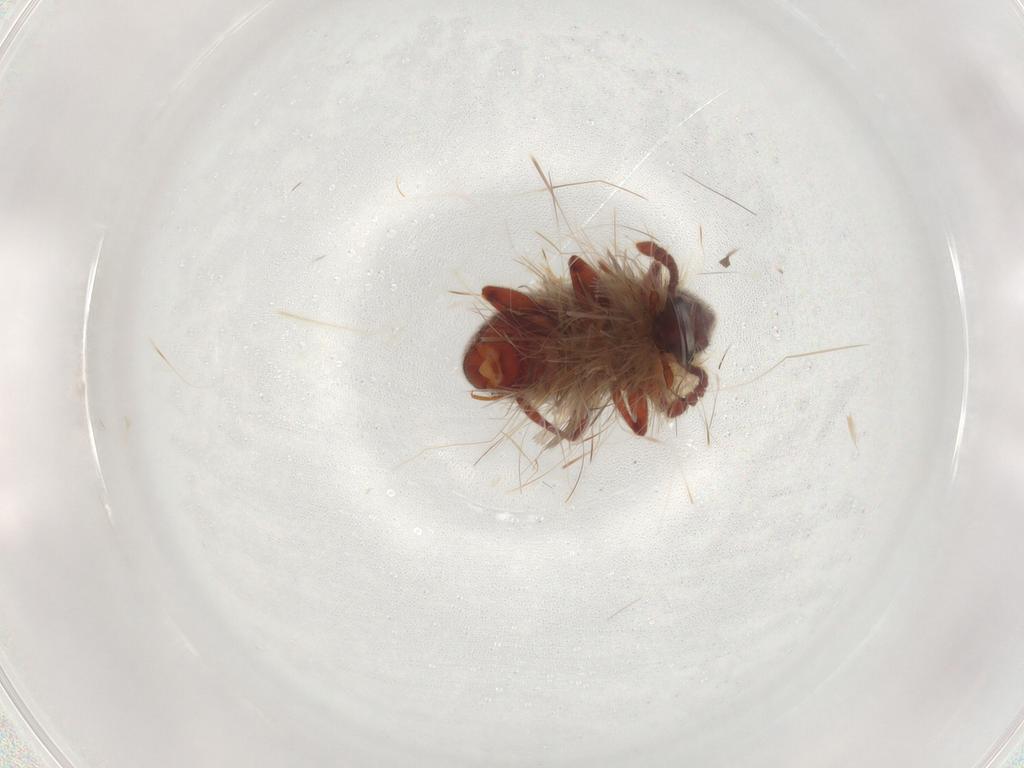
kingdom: Animalia
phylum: Arthropoda
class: Insecta
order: Coleoptera
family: Staphylinidae
